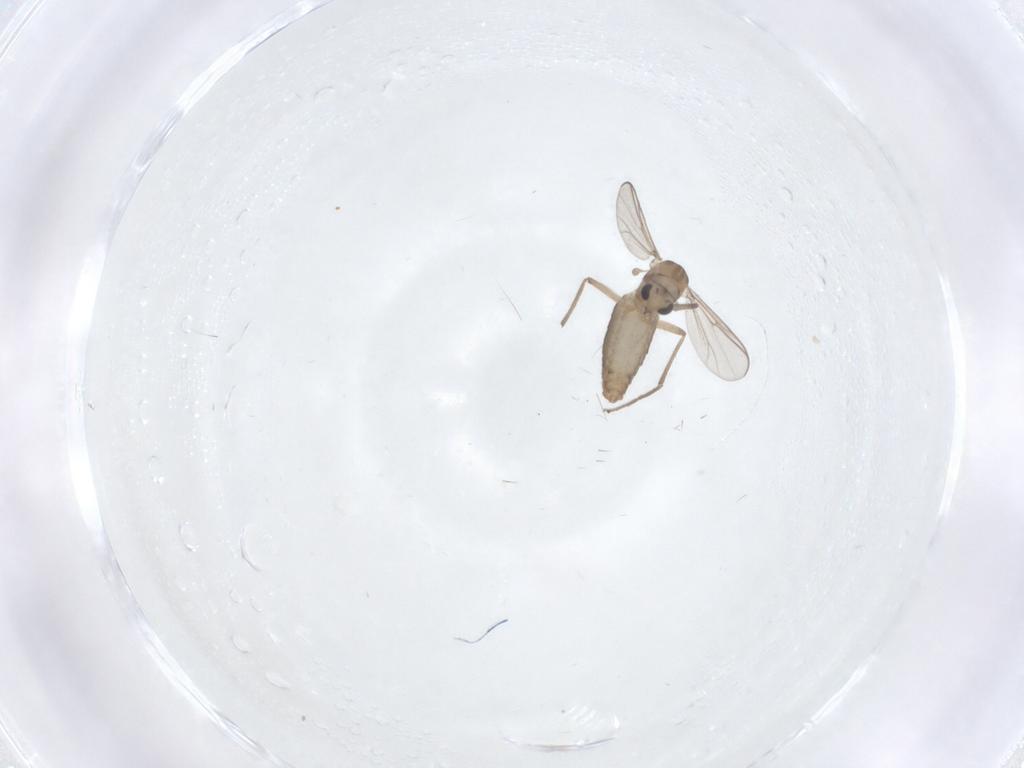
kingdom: Animalia
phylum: Arthropoda
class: Insecta
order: Diptera
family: Chironomidae
